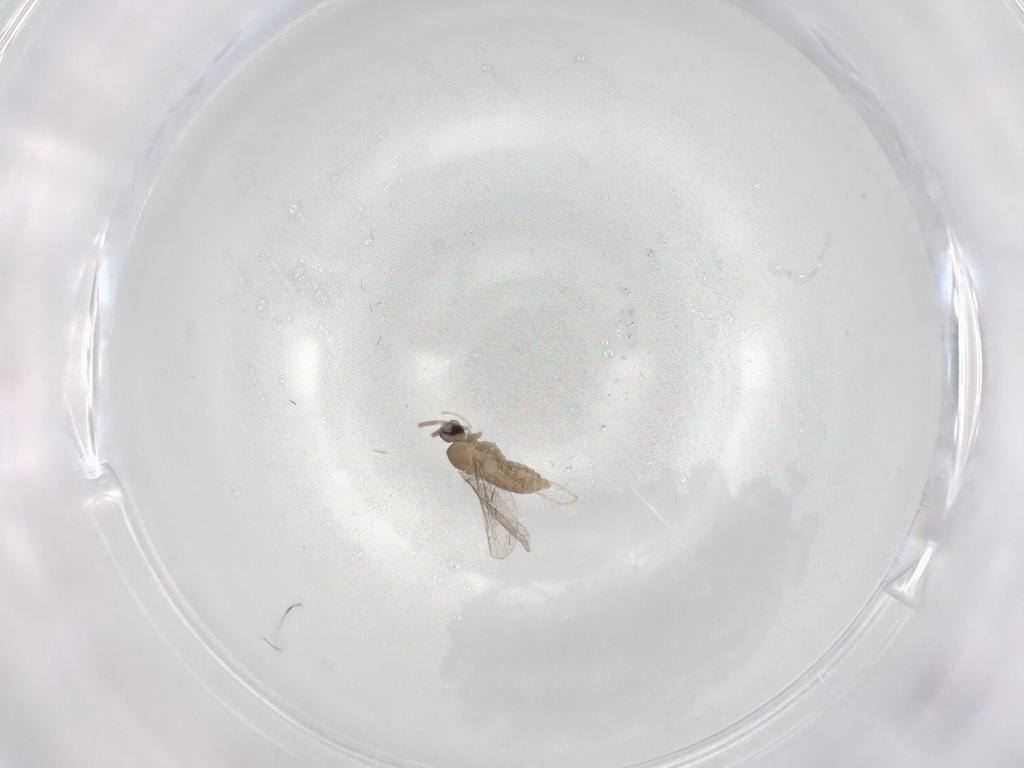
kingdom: Animalia
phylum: Arthropoda
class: Insecta
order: Diptera
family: Cecidomyiidae
